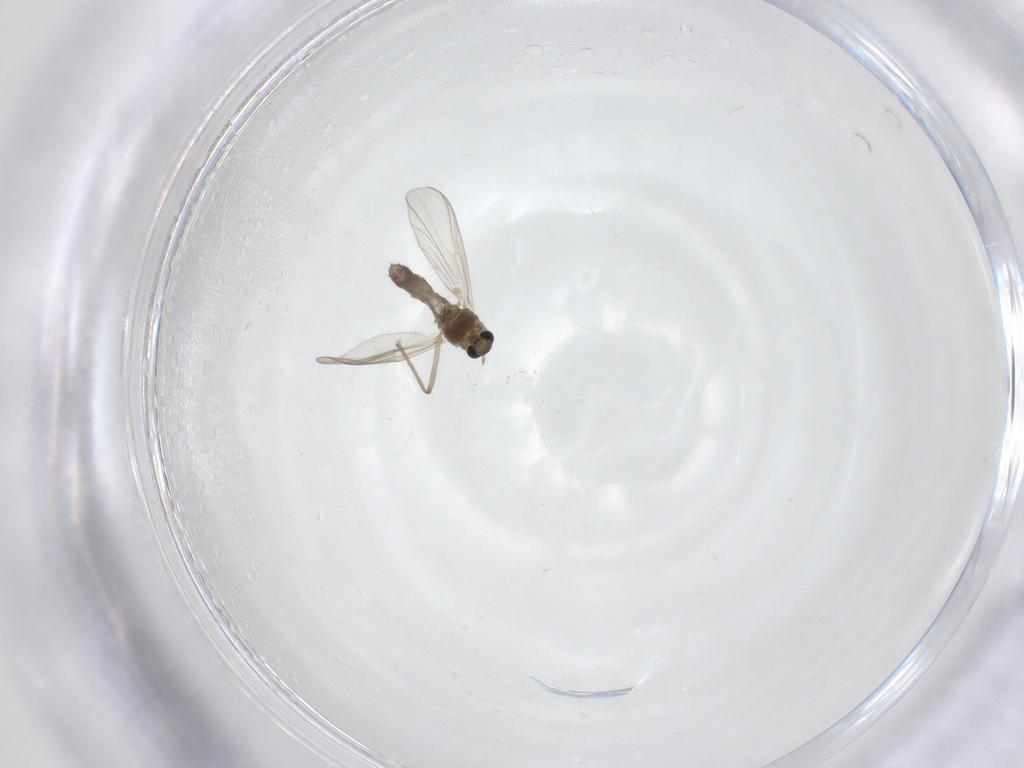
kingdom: Animalia
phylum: Arthropoda
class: Insecta
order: Diptera
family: Chironomidae
